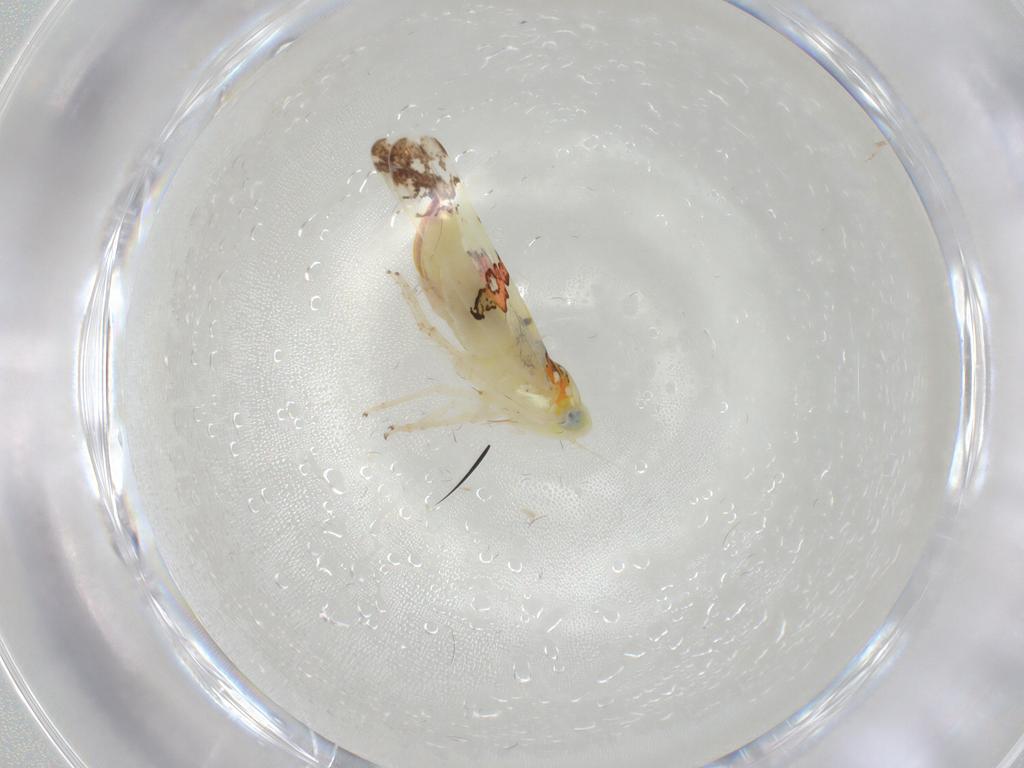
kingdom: Animalia
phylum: Arthropoda
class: Insecta
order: Hemiptera
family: Cicadellidae
